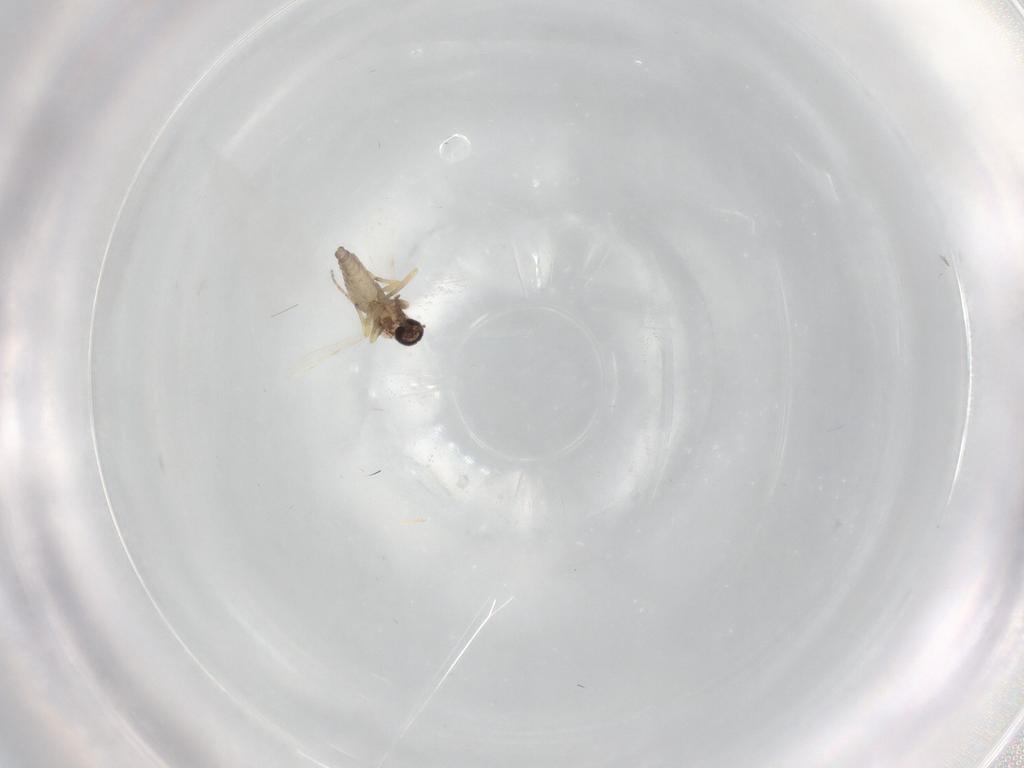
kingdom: Animalia
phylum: Arthropoda
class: Insecta
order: Diptera
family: Ceratopogonidae
